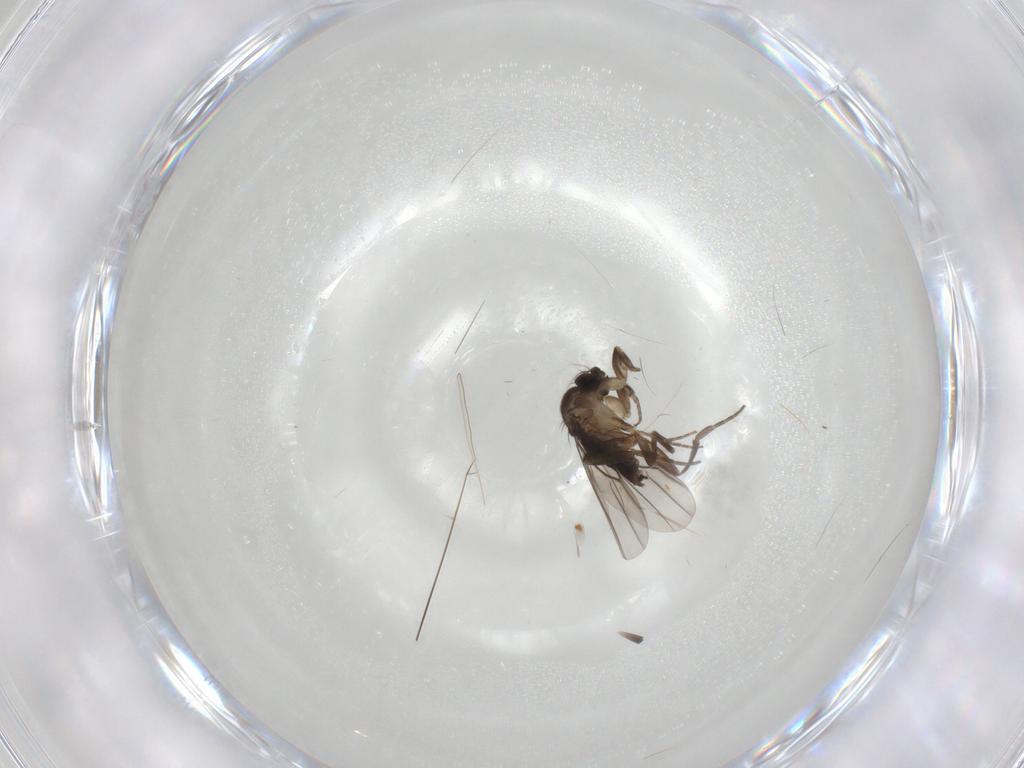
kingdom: Animalia
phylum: Arthropoda
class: Insecta
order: Diptera
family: Phoridae
